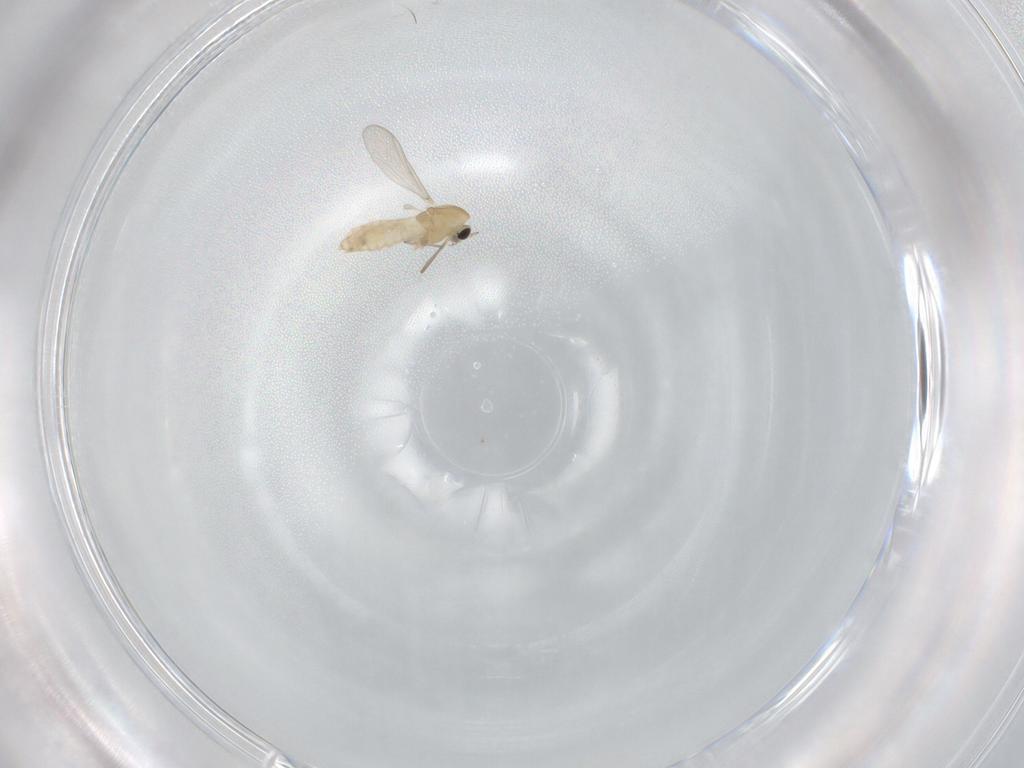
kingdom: Animalia
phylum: Arthropoda
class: Insecta
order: Diptera
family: Chironomidae
